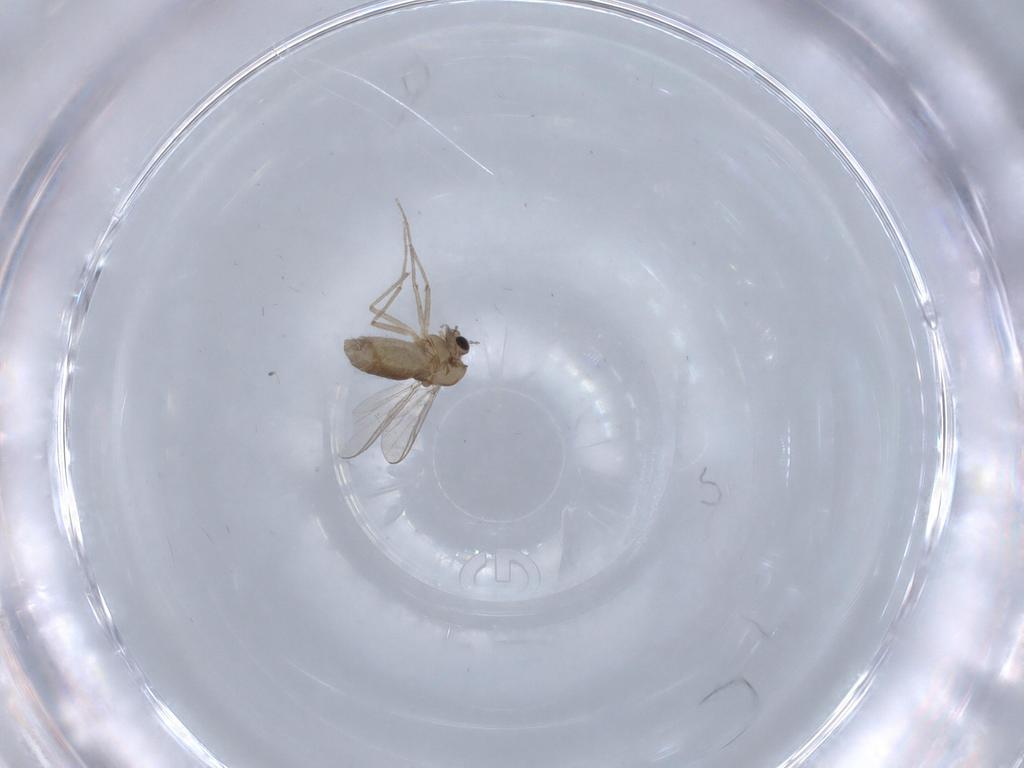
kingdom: Animalia
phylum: Arthropoda
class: Insecta
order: Diptera
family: Chironomidae
